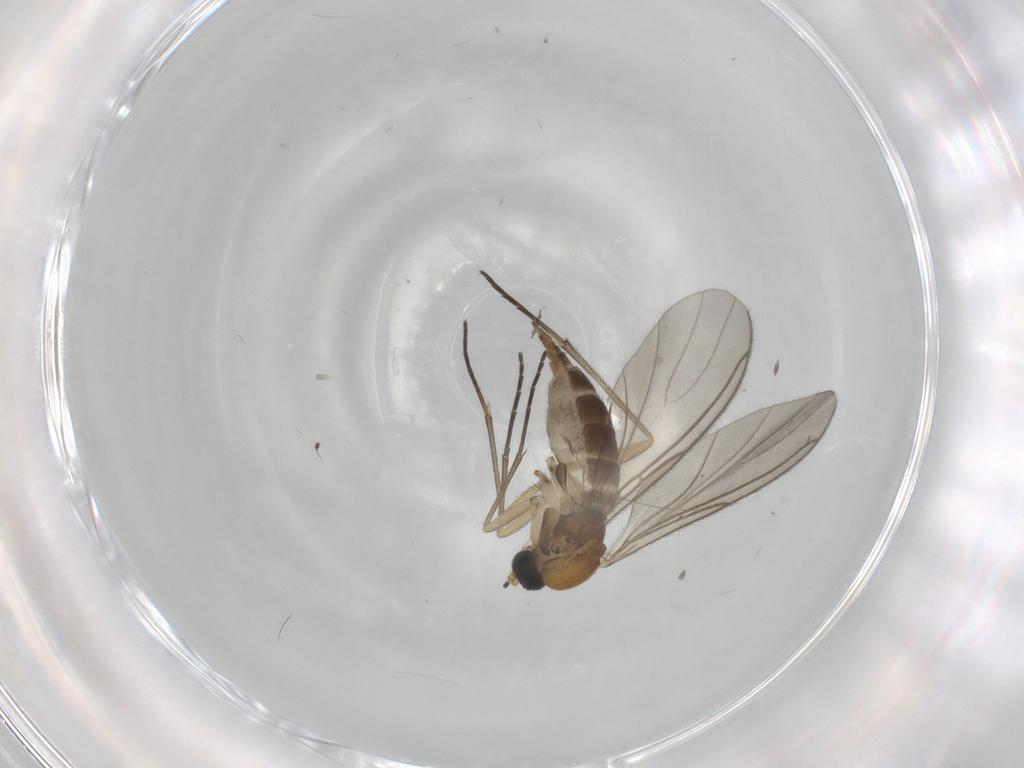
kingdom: Animalia
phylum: Arthropoda
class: Insecta
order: Diptera
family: Sciaridae
